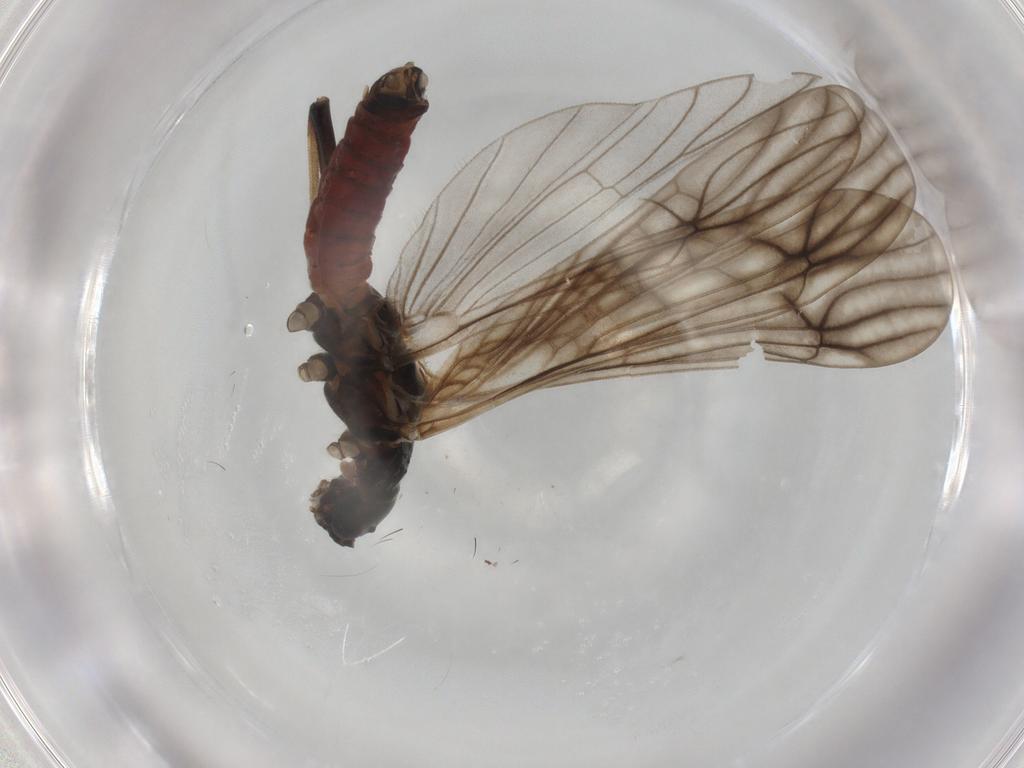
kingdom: Animalia
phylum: Arthropoda
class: Insecta
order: Plecoptera
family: Nemouridae
